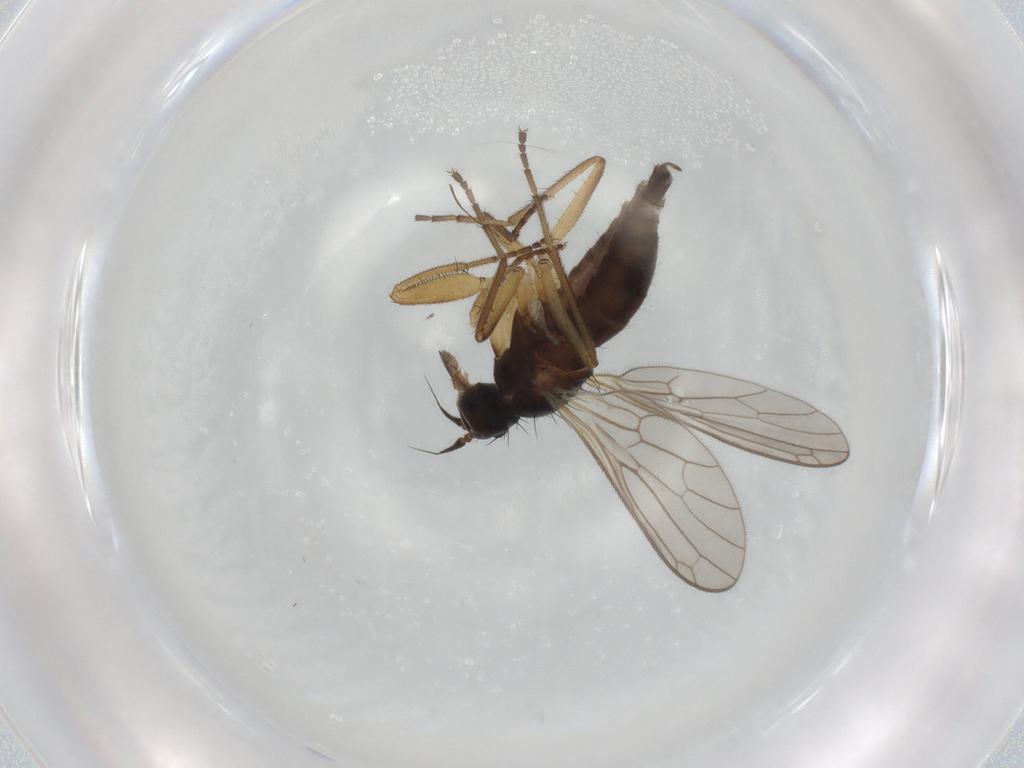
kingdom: Animalia
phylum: Arthropoda
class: Insecta
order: Diptera
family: Empididae
